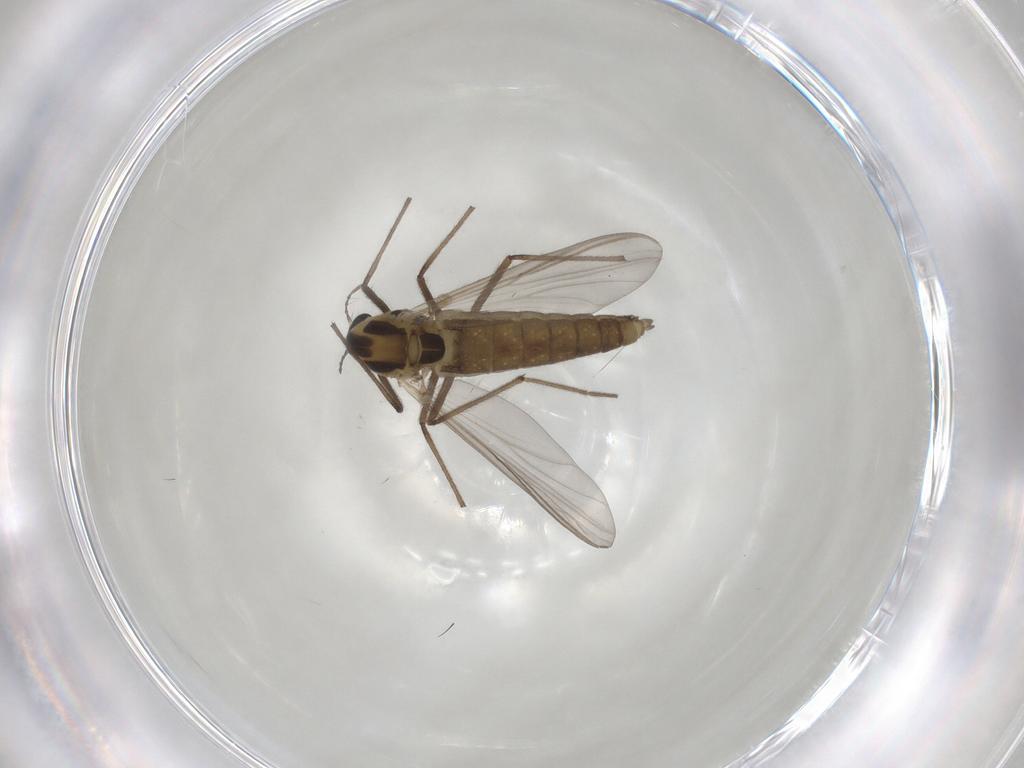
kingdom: Animalia
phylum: Arthropoda
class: Insecta
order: Diptera
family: Chironomidae
